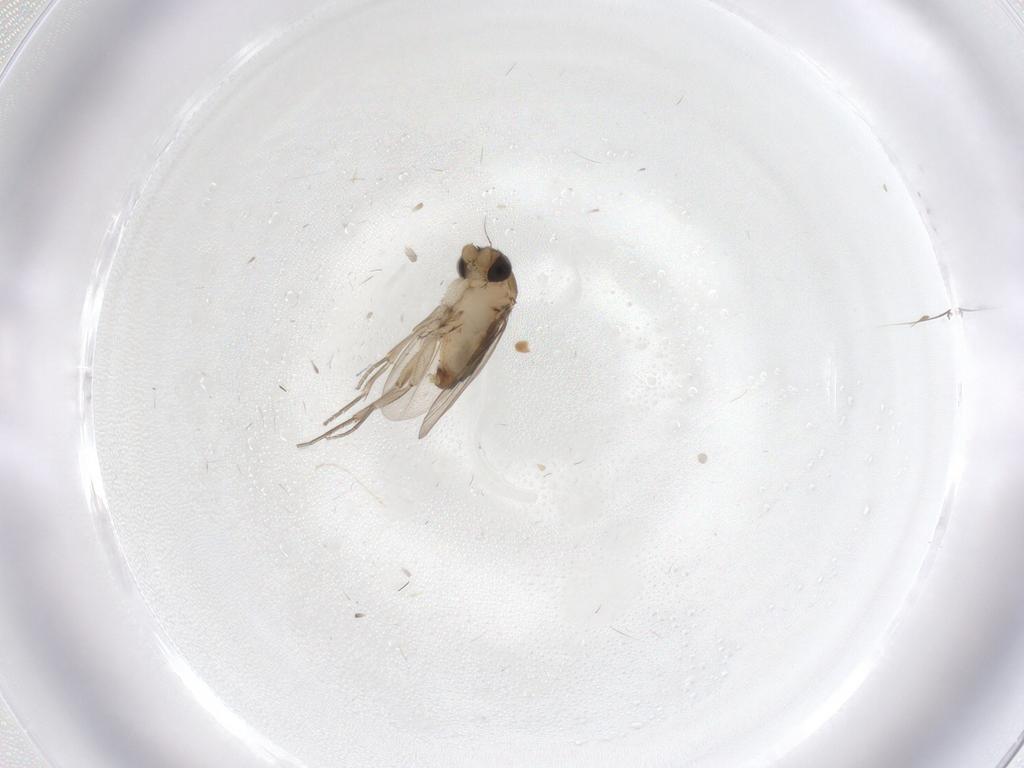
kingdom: Animalia
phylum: Arthropoda
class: Insecta
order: Diptera
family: Phoridae
